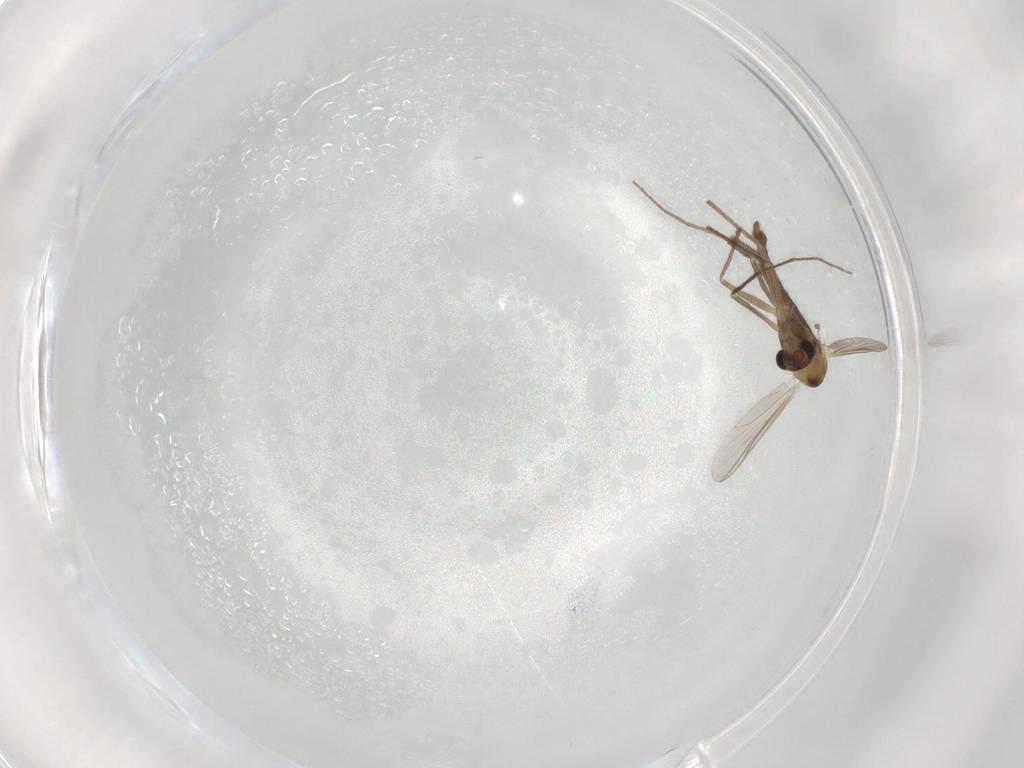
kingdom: Animalia
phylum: Arthropoda
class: Insecta
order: Diptera
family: Chironomidae
